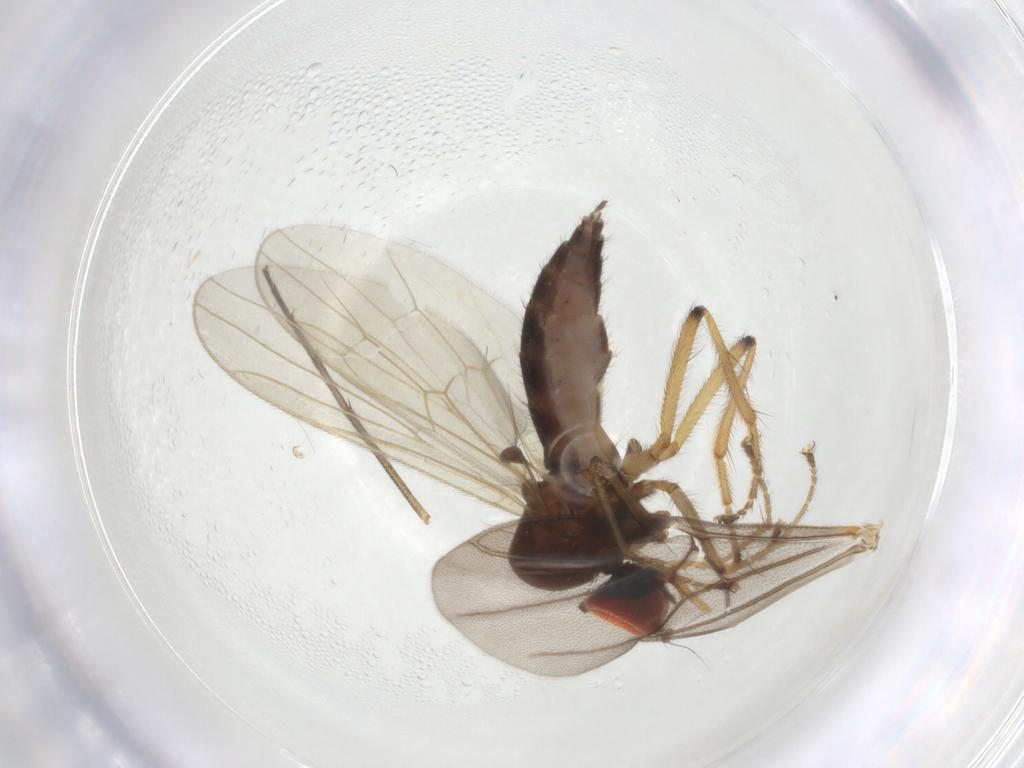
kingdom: Animalia
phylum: Arthropoda
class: Insecta
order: Diptera
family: Hybotidae
